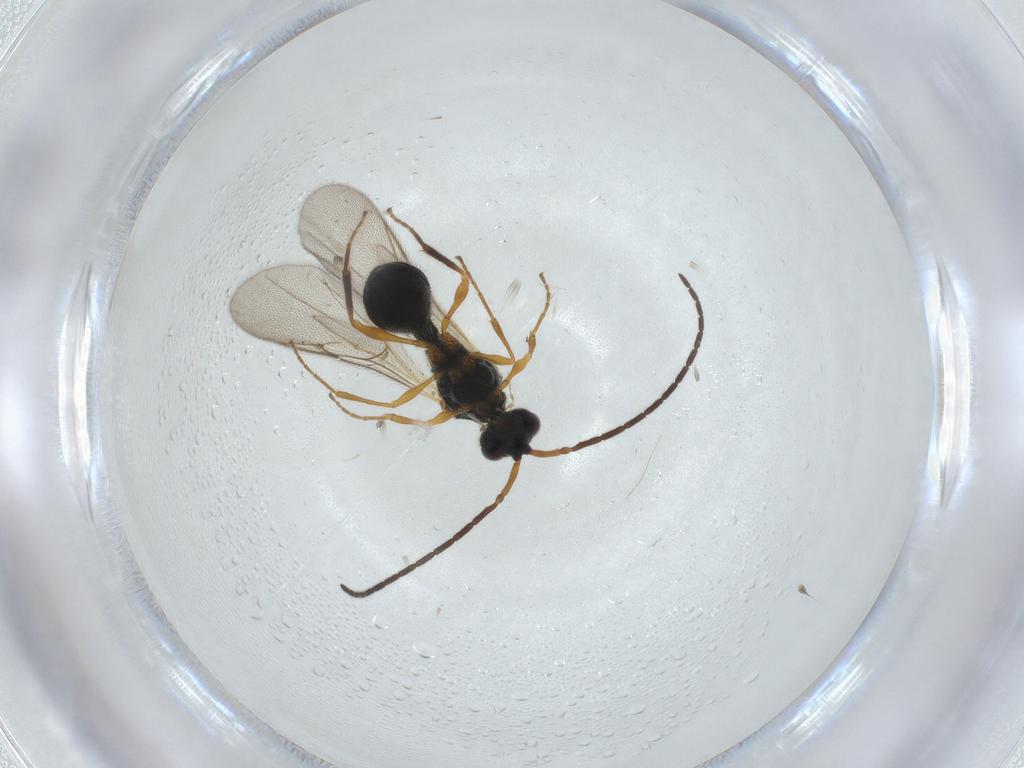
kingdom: Animalia
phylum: Arthropoda
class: Insecta
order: Hymenoptera
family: Diapriidae
